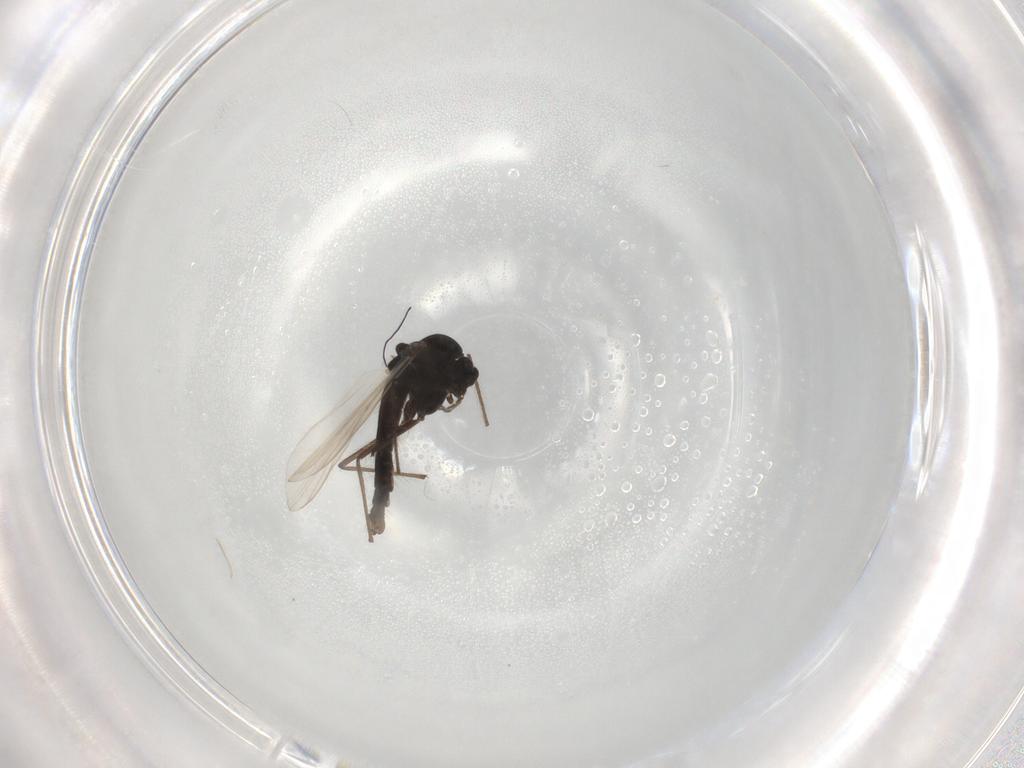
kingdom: Animalia
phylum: Arthropoda
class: Insecta
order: Diptera
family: Chironomidae
